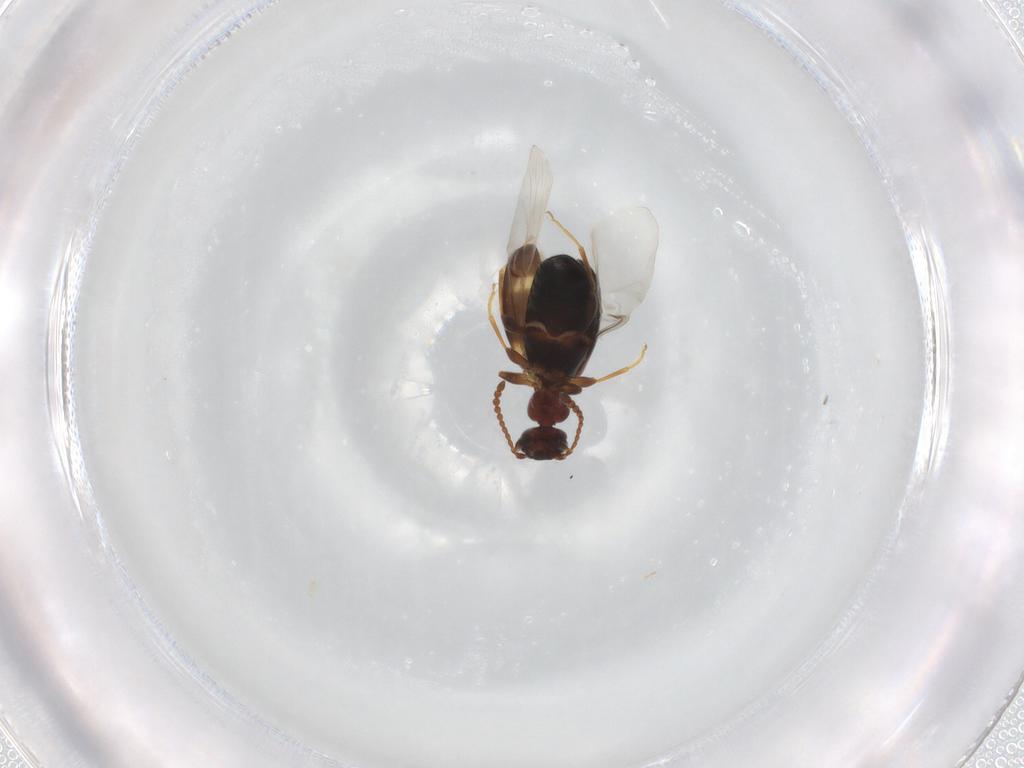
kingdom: Animalia
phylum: Arthropoda
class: Insecta
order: Coleoptera
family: Anthicidae
